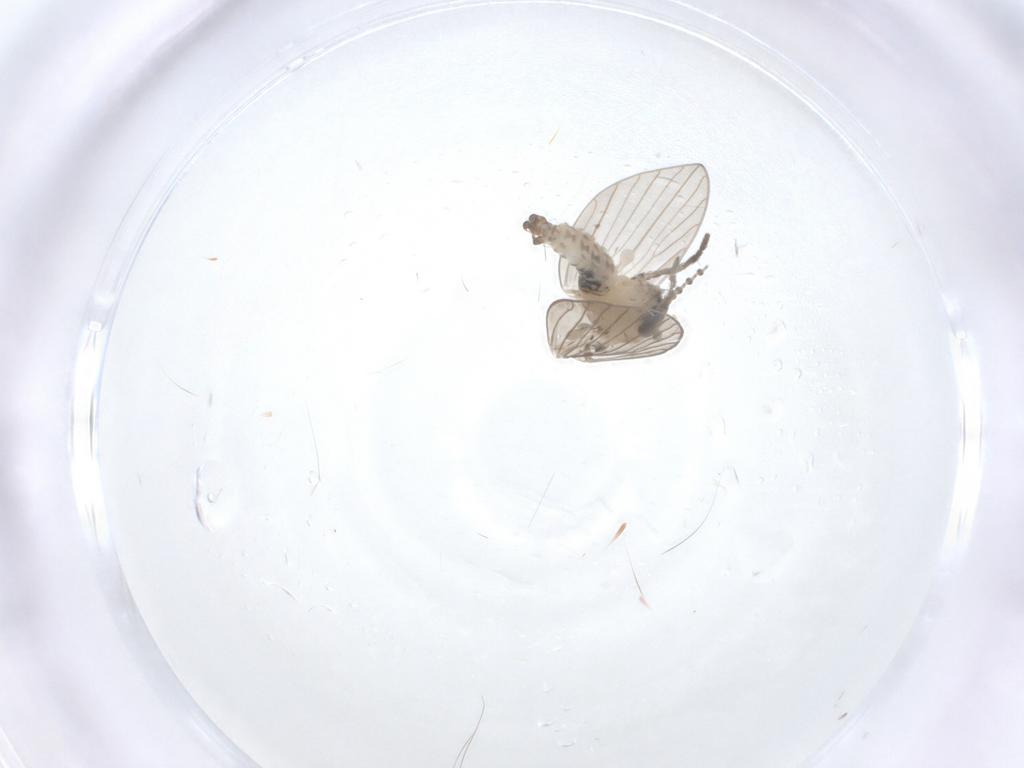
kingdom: Animalia
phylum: Arthropoda
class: Insecta
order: Diptera
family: Psychodidae
